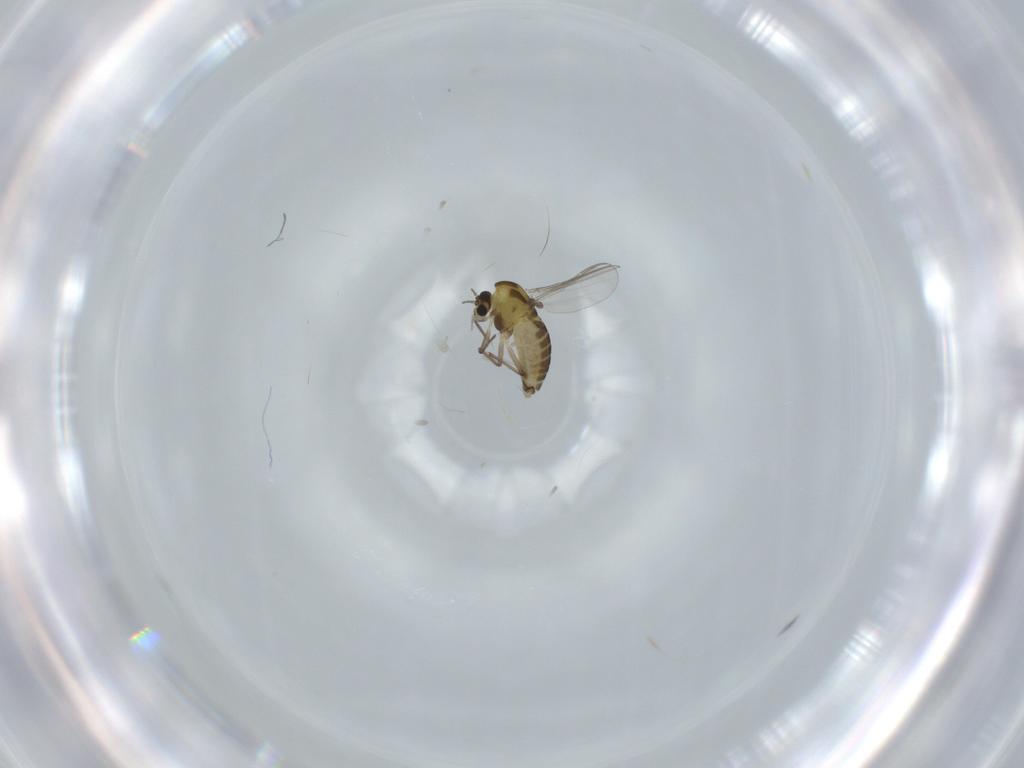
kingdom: Animalia
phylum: Arthropoda
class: Insecta
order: Diptera
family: Chironomidae
